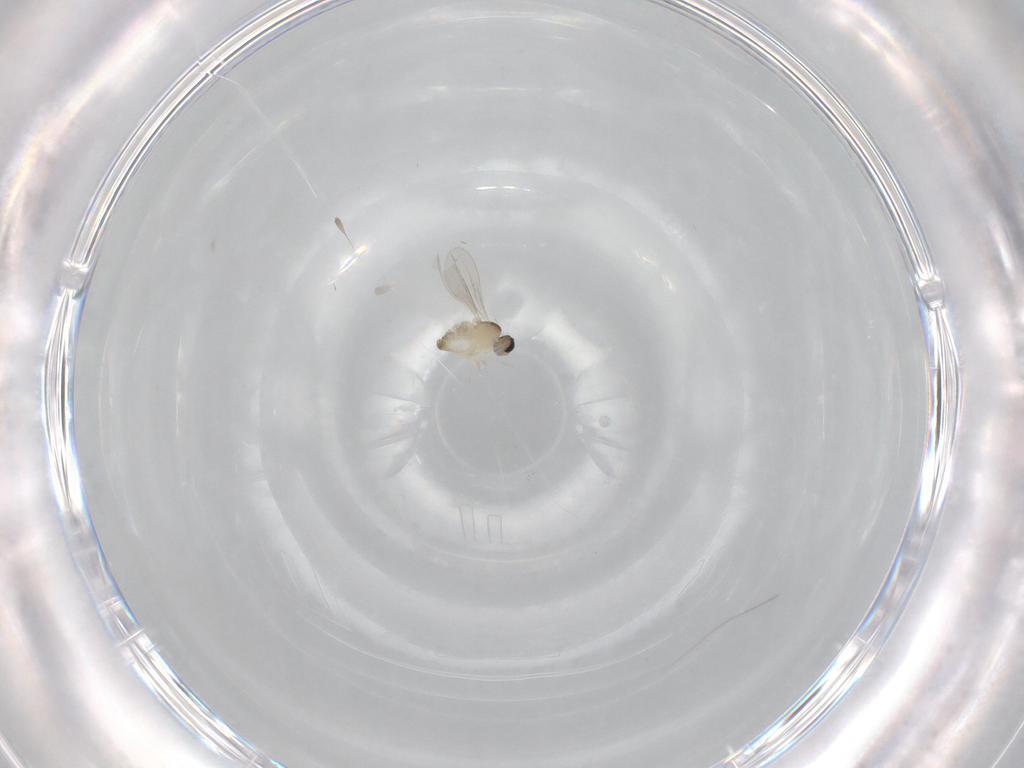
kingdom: Animalia
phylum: Arthropoda
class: Insecta
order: Diptera
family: Cecidomyiidae
